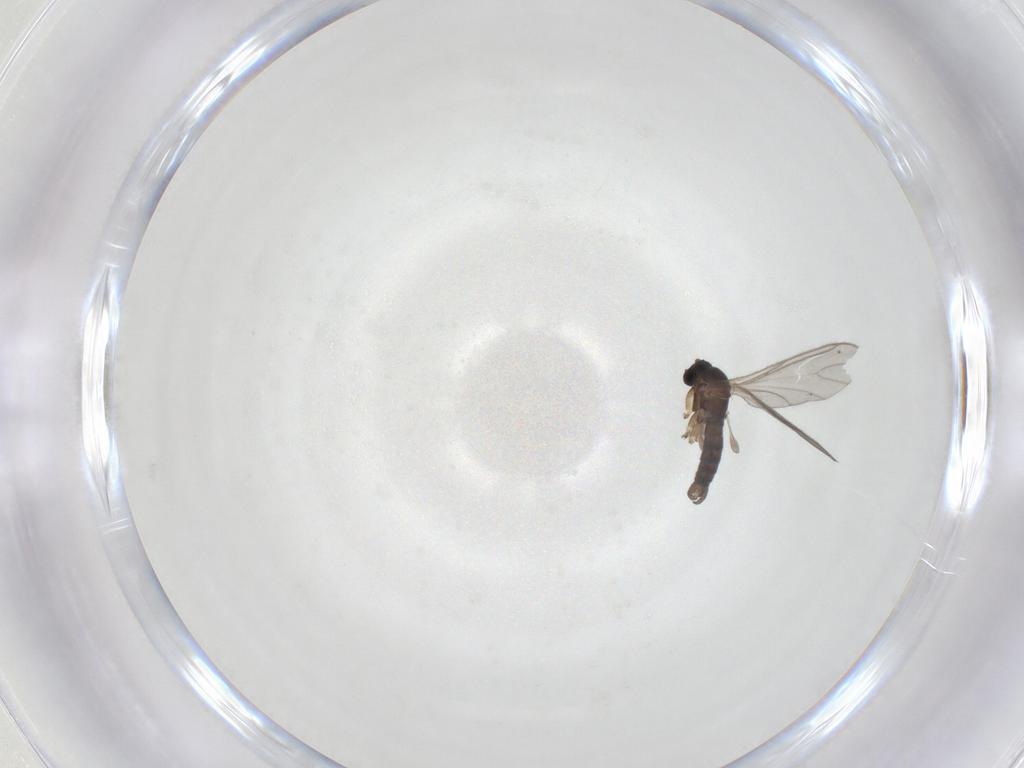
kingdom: Animalia
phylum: Arthropoda
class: Insecta
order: Diptera
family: Sciaridae
